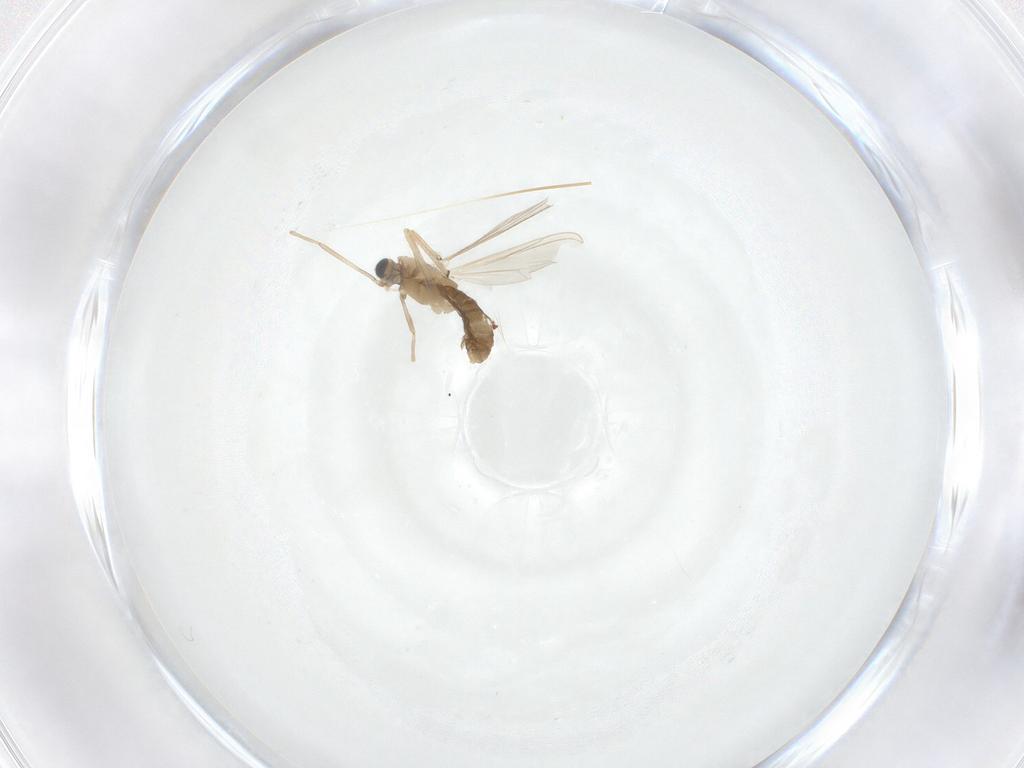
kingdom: Animalia
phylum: Arthropoda
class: Insecta
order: Diptera
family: Chironomidae
